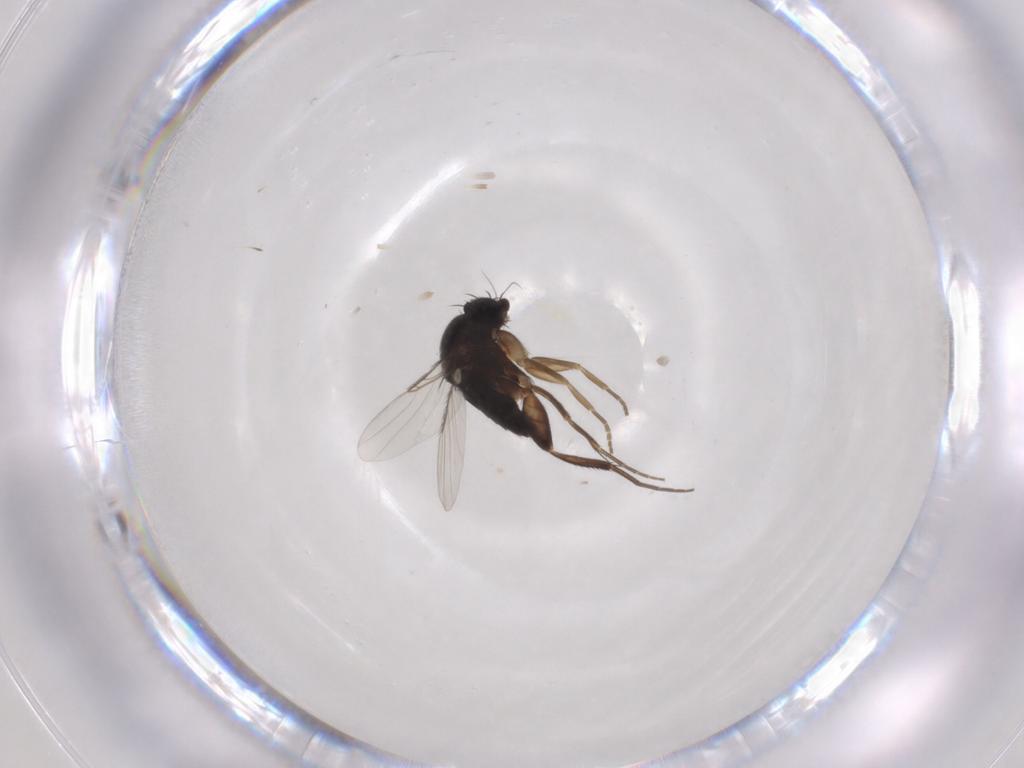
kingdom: Animalia
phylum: Arthropoda
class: Insecta
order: Diptera
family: Phoridae
